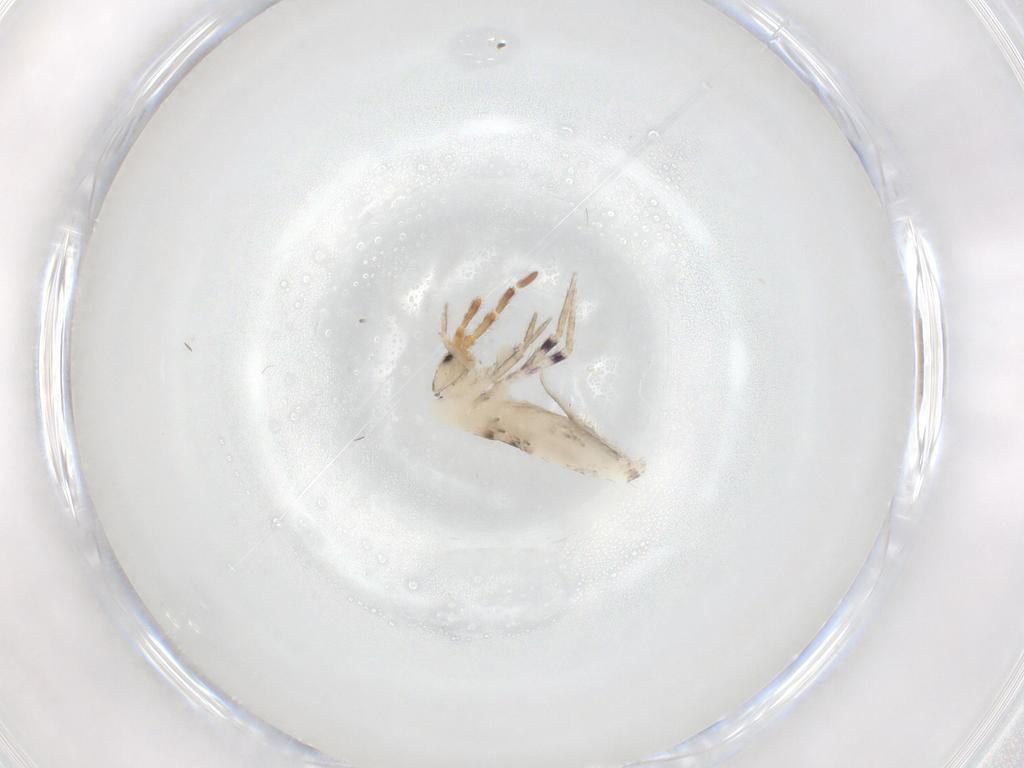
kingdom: Animalia
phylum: Arthropoda
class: Collembola
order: Entomobryomorpha
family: Entomobryidae
